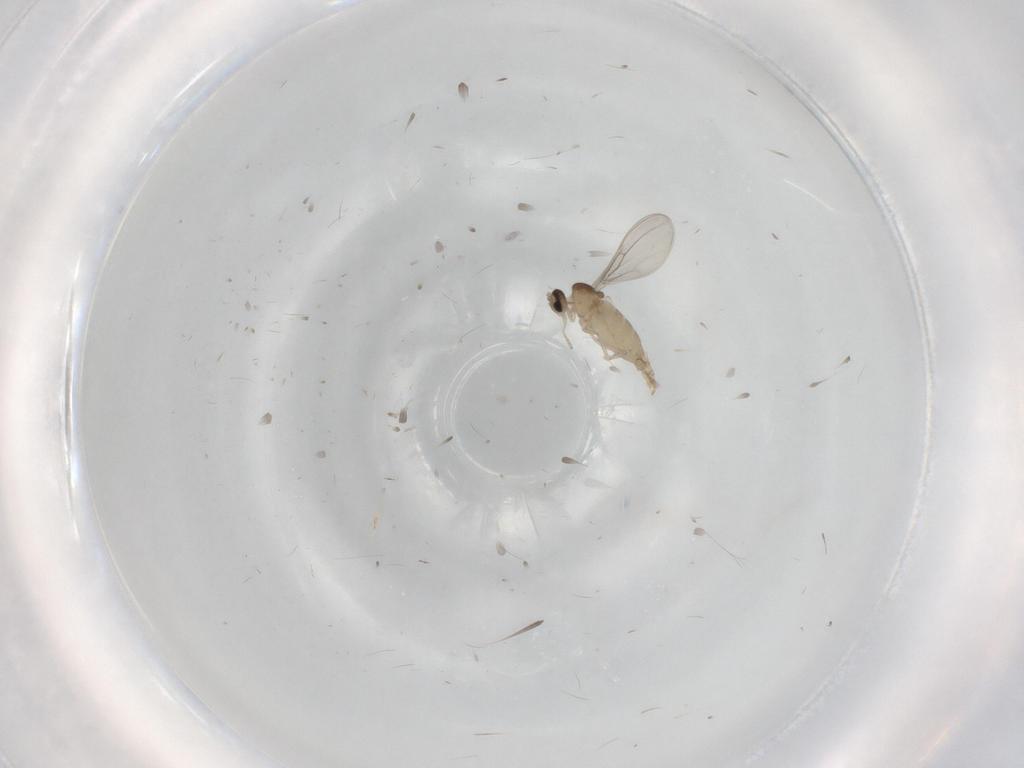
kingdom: Animalia
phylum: Arthropoda
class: Insecta
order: Diptera
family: Cecidomyiidae
